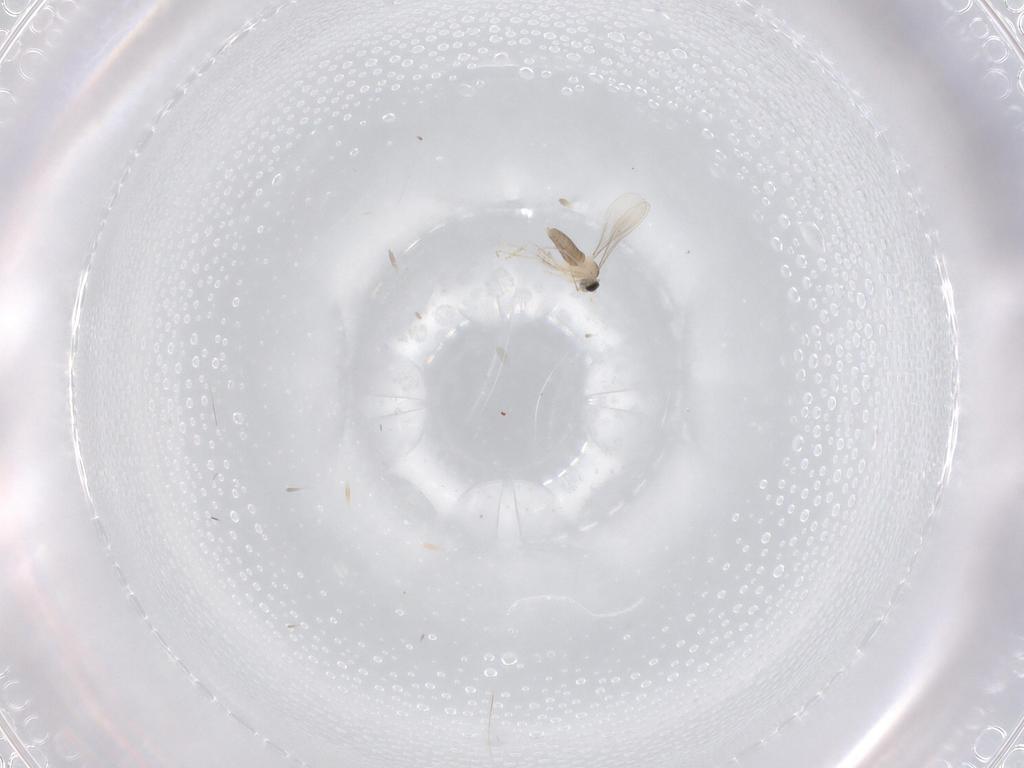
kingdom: Animalia
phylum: Arthropoda
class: Insecta
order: Diptera
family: Cecidomyiidae
